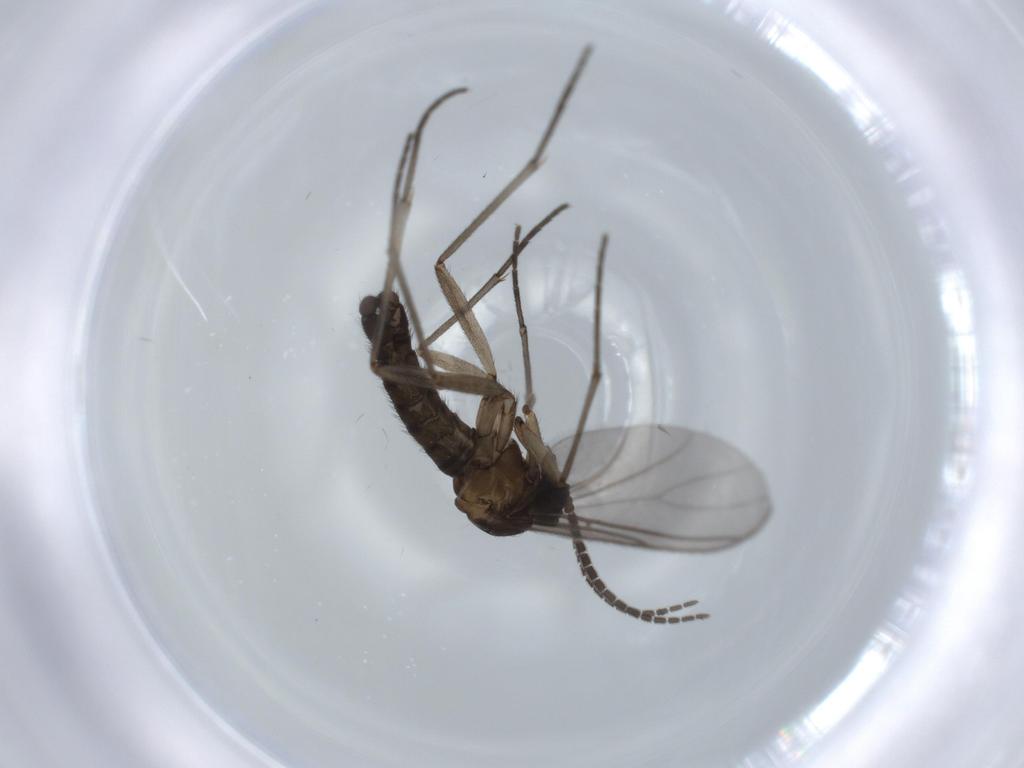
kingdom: Animalia
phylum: Arthropoda
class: Insecta
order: Diptera
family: Sciaridae
